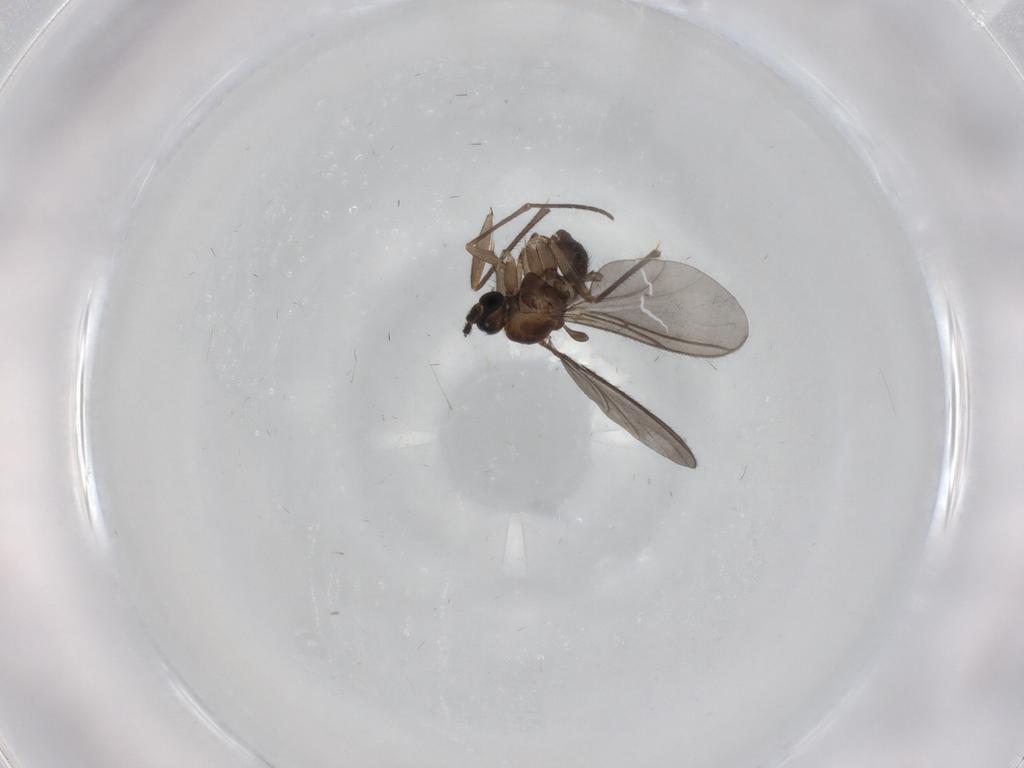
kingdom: Animalia
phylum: Arthropoda
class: Insecta
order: Diptera
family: Sciaridae
